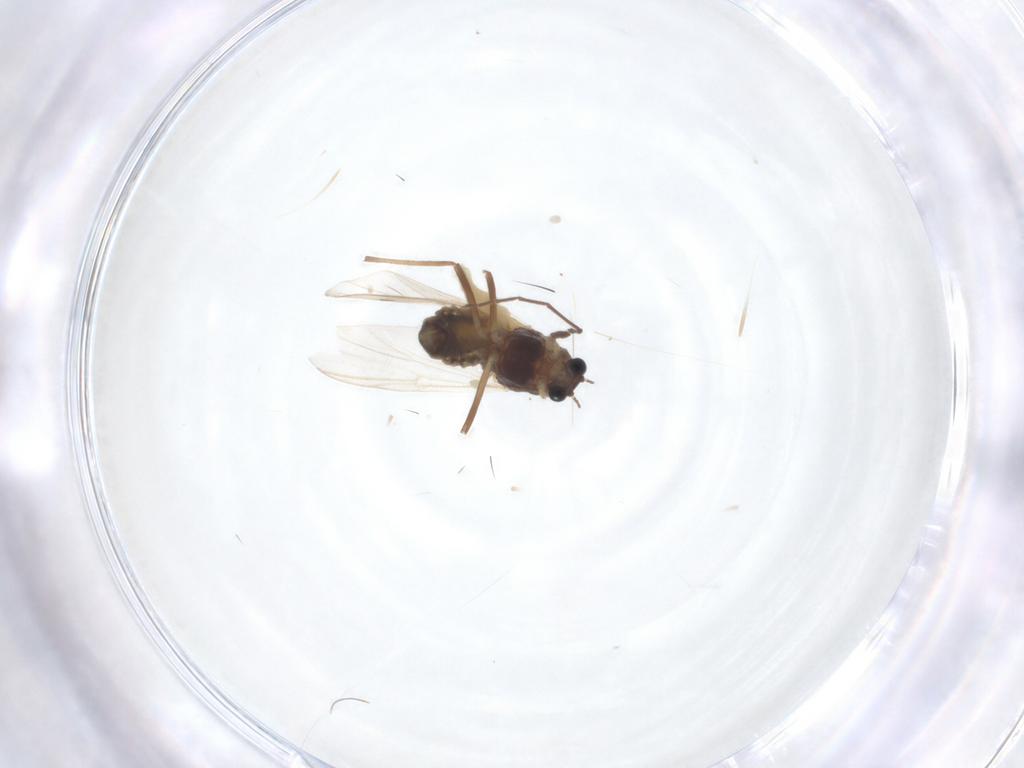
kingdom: Animalia
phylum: Arthropoda
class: Insecta
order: Diptera
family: Chironomidae
